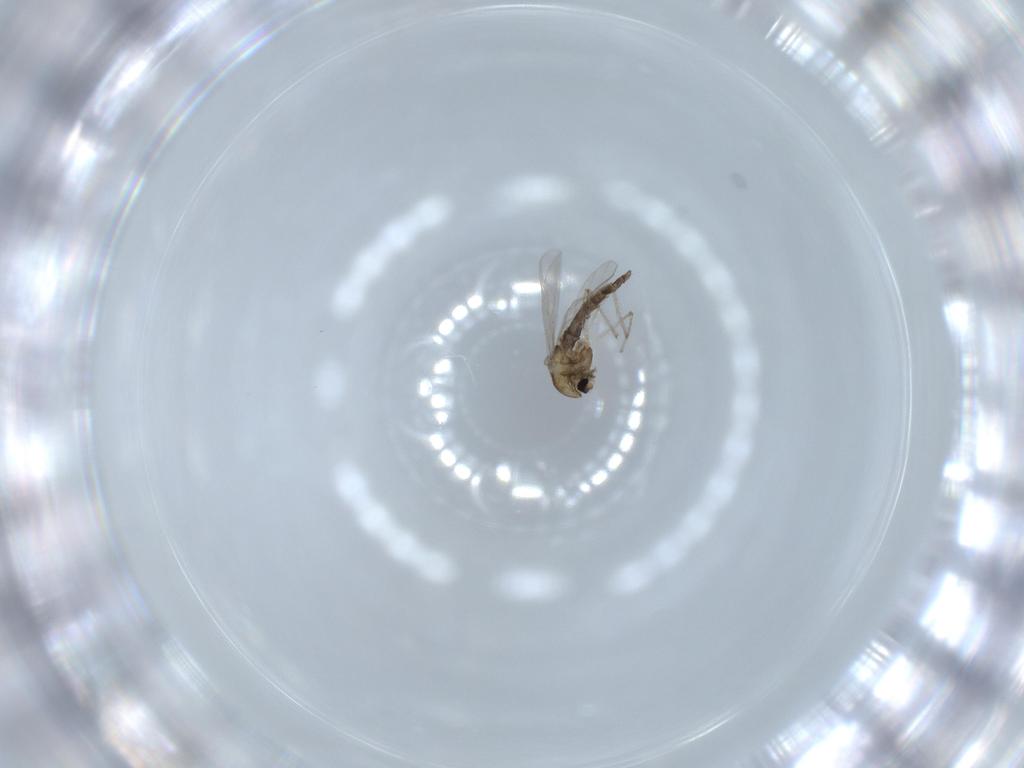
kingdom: Animalia
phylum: Arthropoda
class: Insecta
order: Diptera
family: Chironomidae
